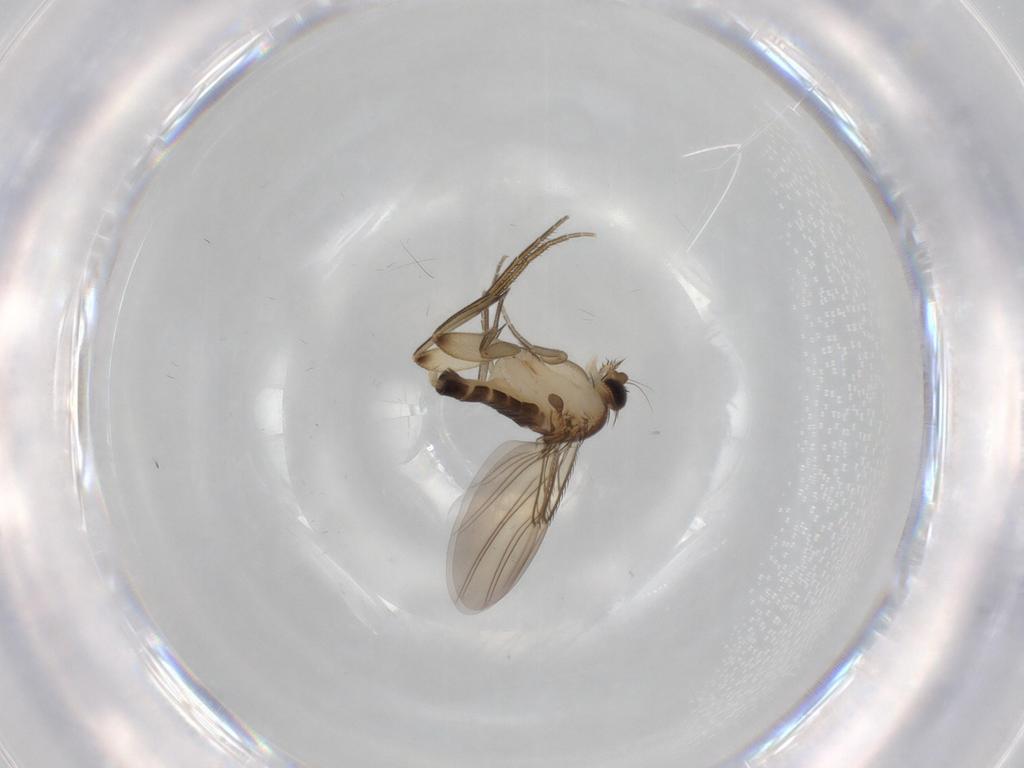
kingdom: Animalia
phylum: Arthropoda
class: Insecta
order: Diptera
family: Phoridae
